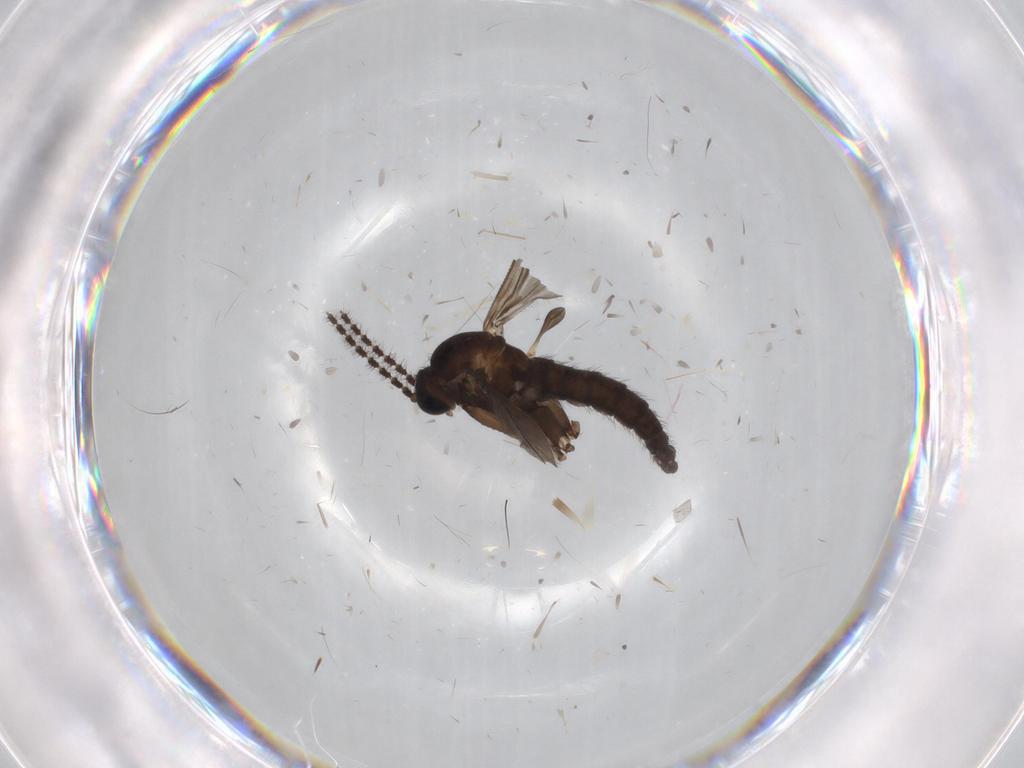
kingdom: Animalia
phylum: Arthropoda
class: Insecta
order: Diptera
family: Sciaridae
